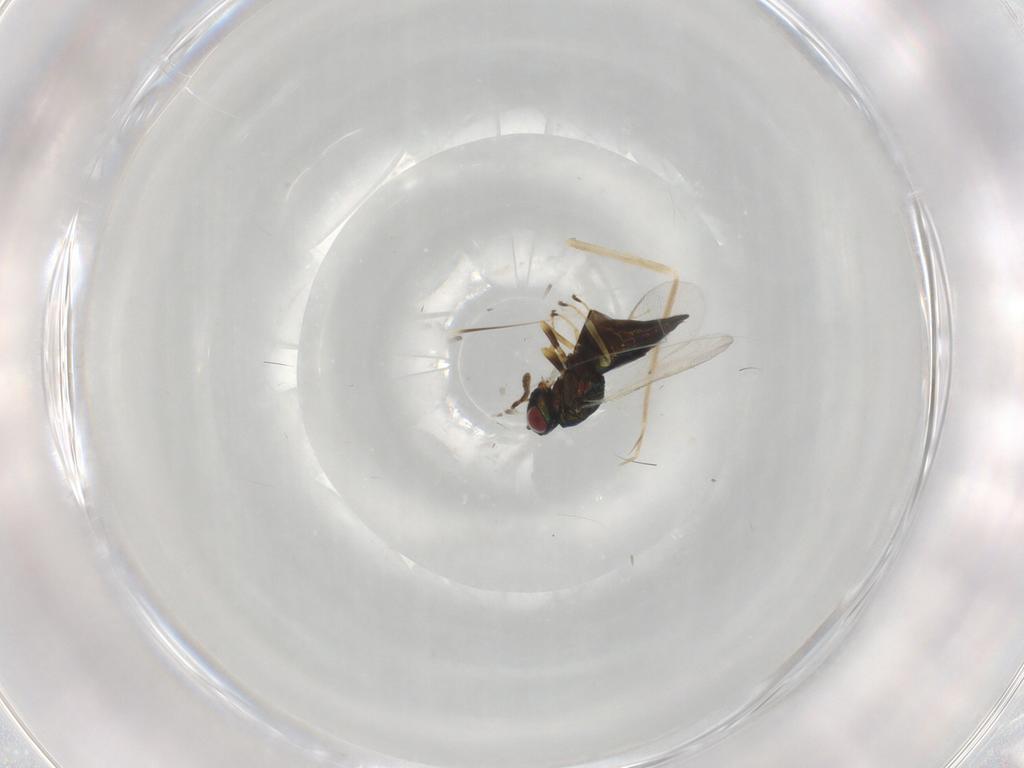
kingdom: Animalia
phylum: Arthropoda
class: Insecta
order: Hymenoptera
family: Pteromalidae
